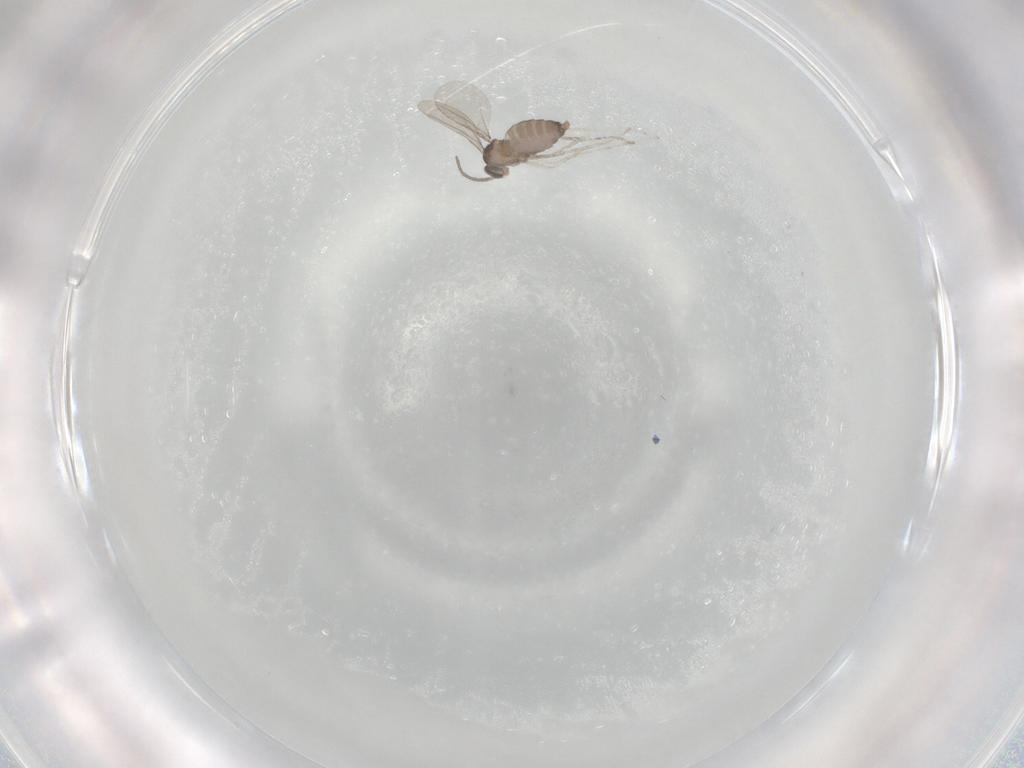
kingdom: Animalia
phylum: Arthropoda
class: Insecta
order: Diptera
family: Cecidomyiidae
